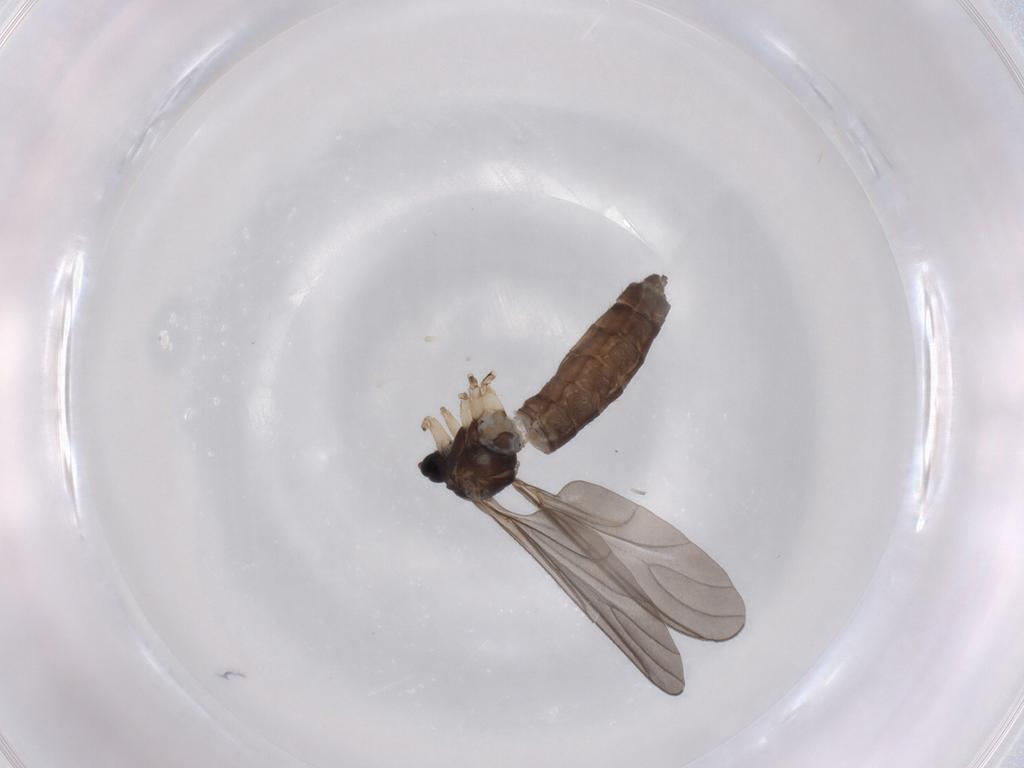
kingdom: Animalia
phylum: Arthropoda
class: Insecta
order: Diptera
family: Sciaridae
